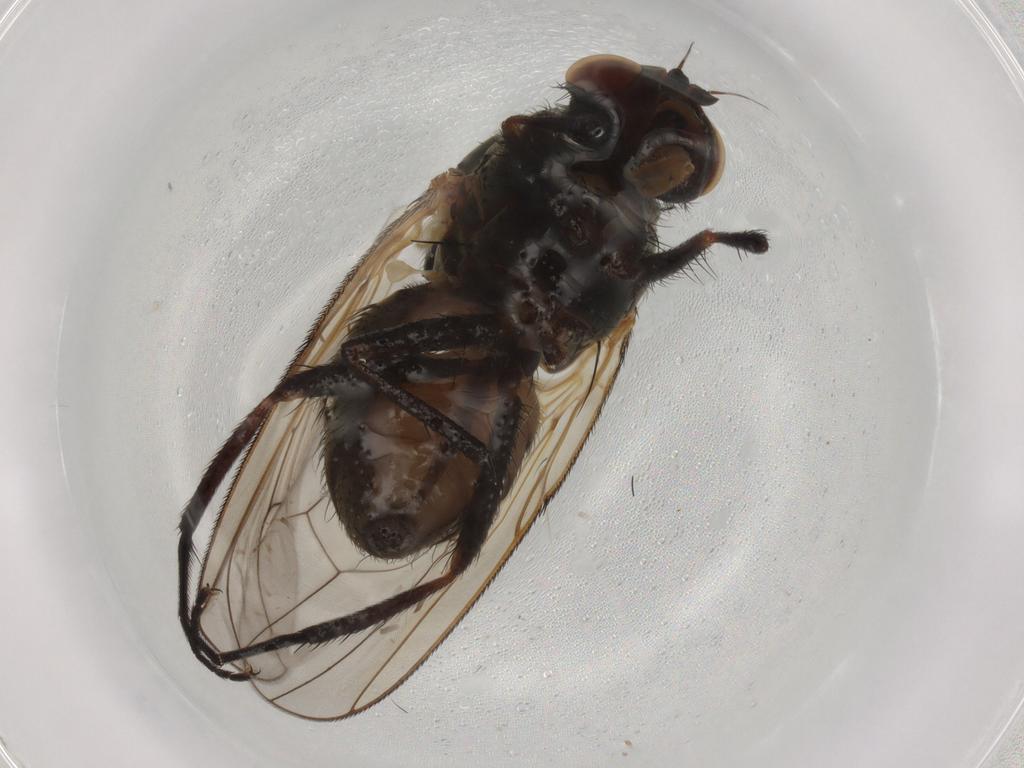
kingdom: Animalia
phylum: Arthropoda
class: Insecta
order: Diptera
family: Anthomyiidae
